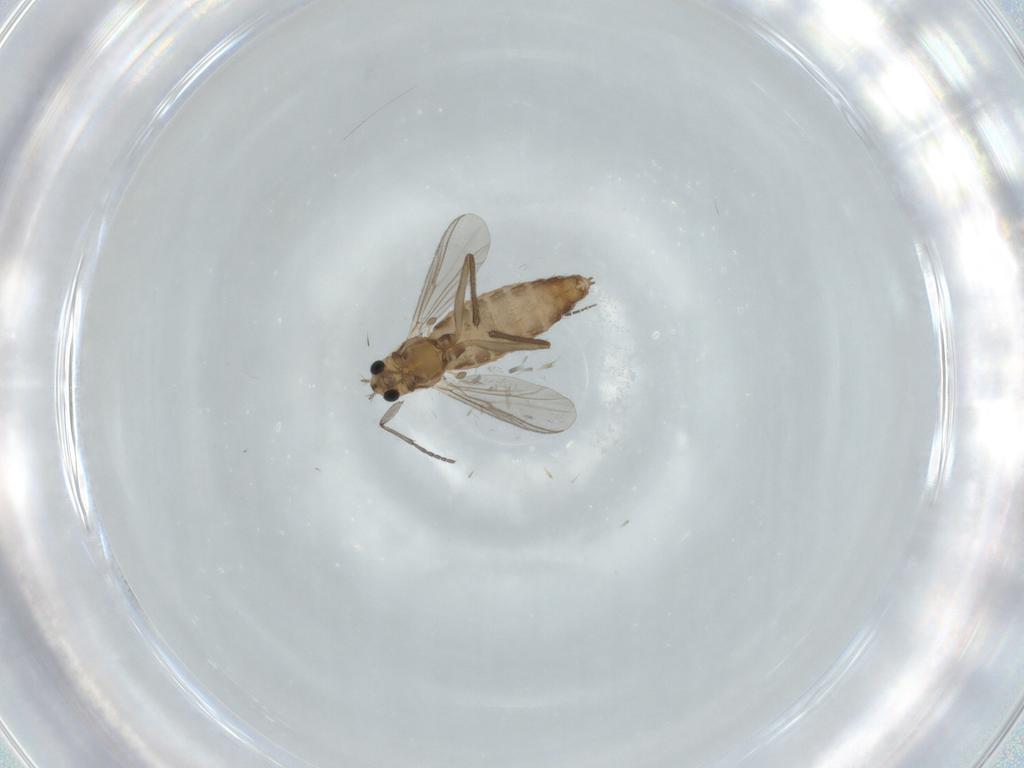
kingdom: Animalia
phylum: Arthropoda
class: Insecta
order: Diptera
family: Chironomidae
